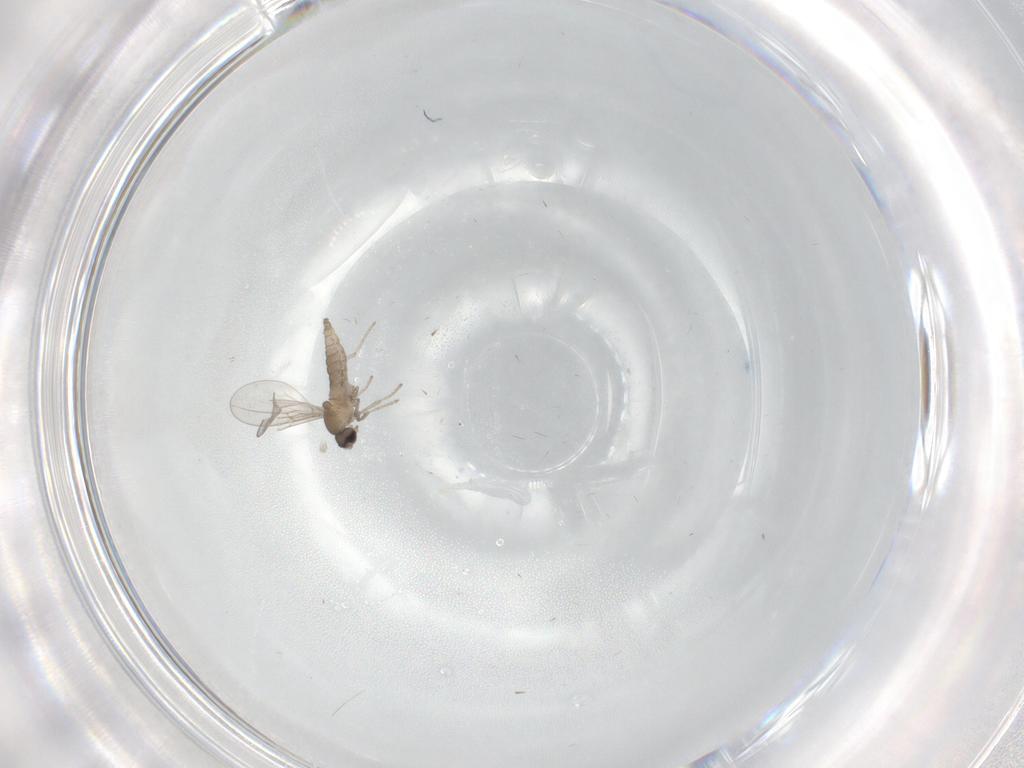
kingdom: Animalia
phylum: Arthropoda
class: Insecta
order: Diptera
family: Cecidomyiidae
